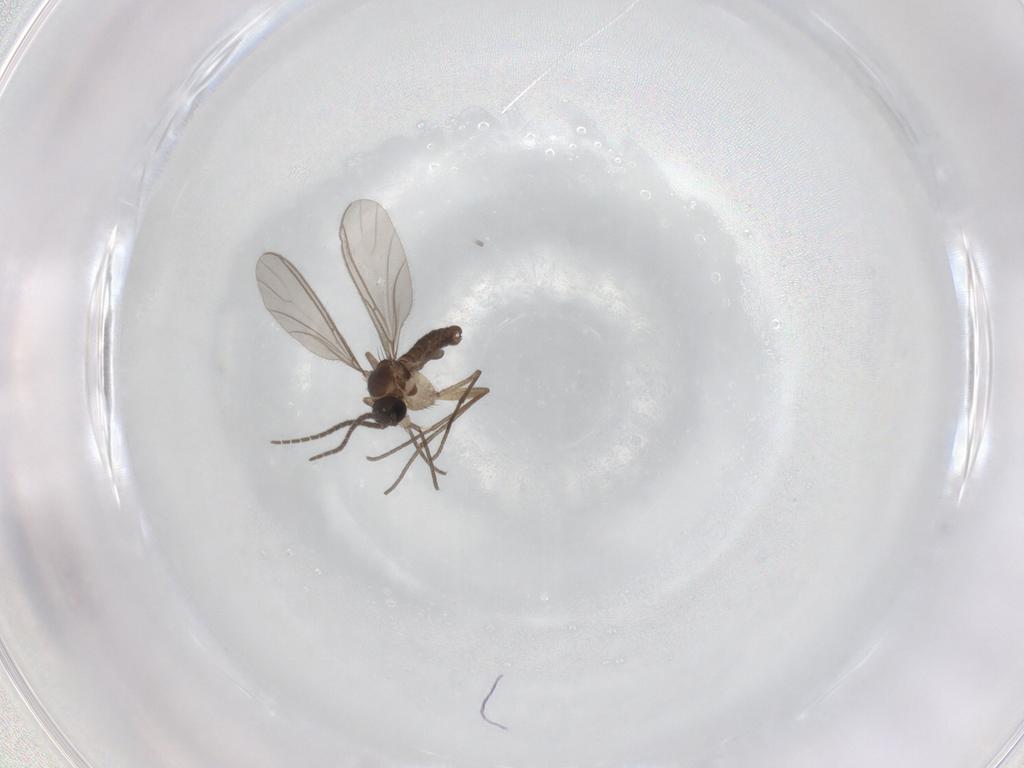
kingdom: Animalia
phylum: Arthropoda
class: Insecta
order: Diptera
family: Sciaridae
